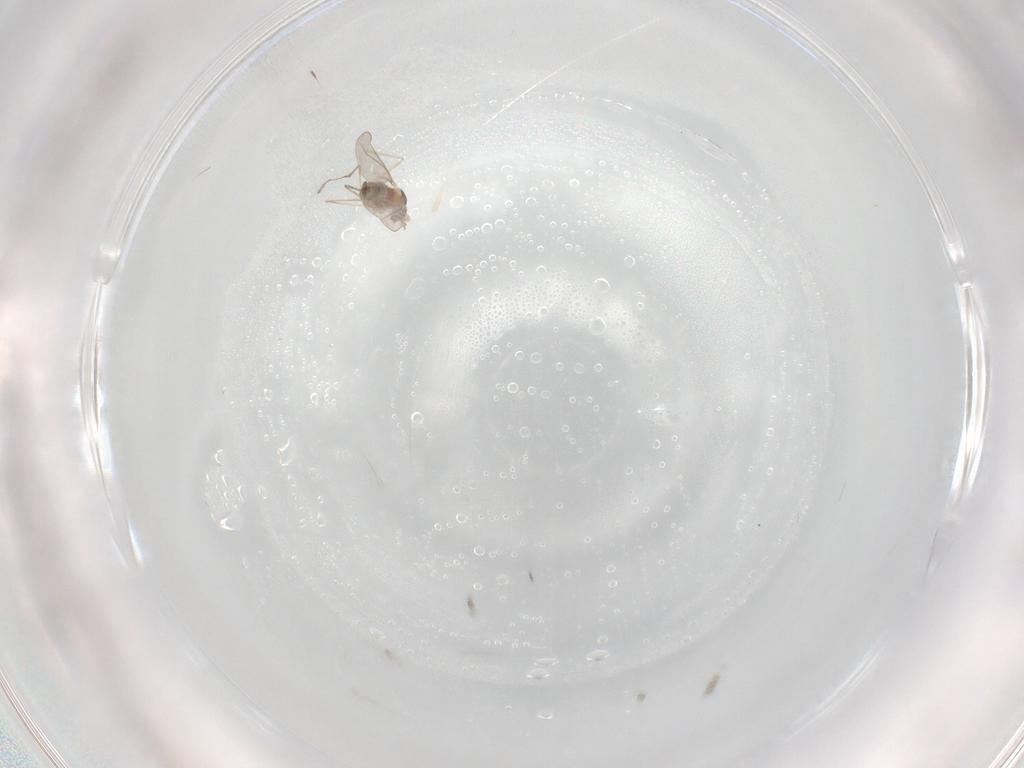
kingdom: Animalia
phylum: Arthropoda
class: Insecta
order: Diptera
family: Cecidomyiidae
